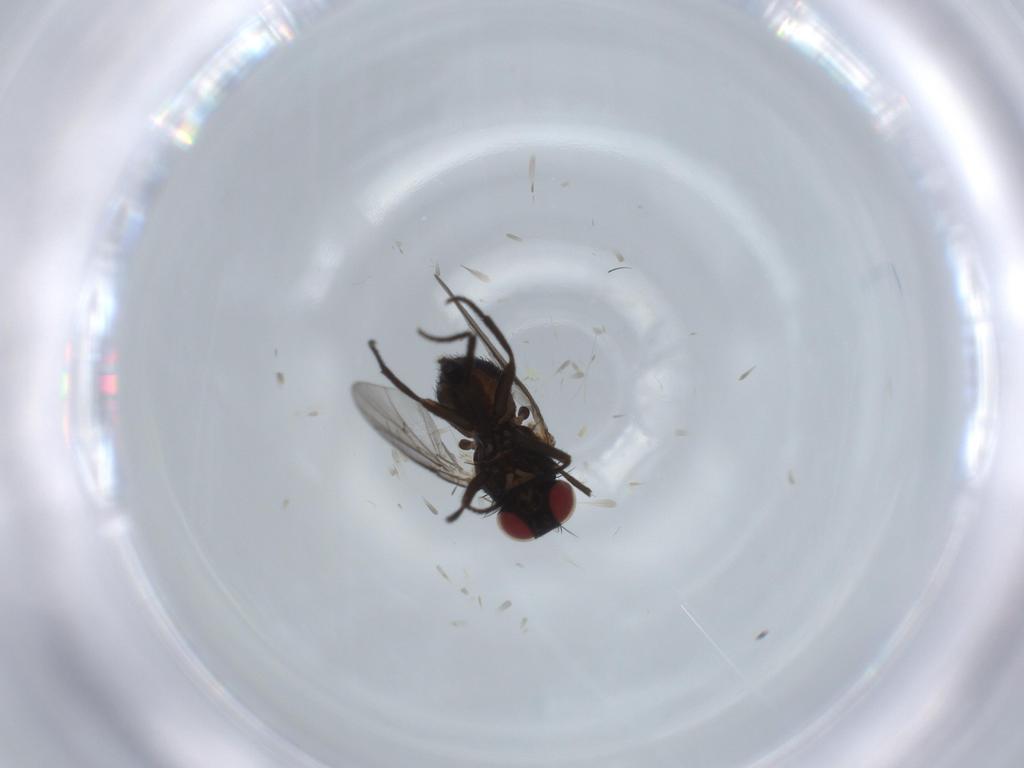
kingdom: Animalia
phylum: Arthropoda
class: Insecta
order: Diptera
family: Agromyzidae
